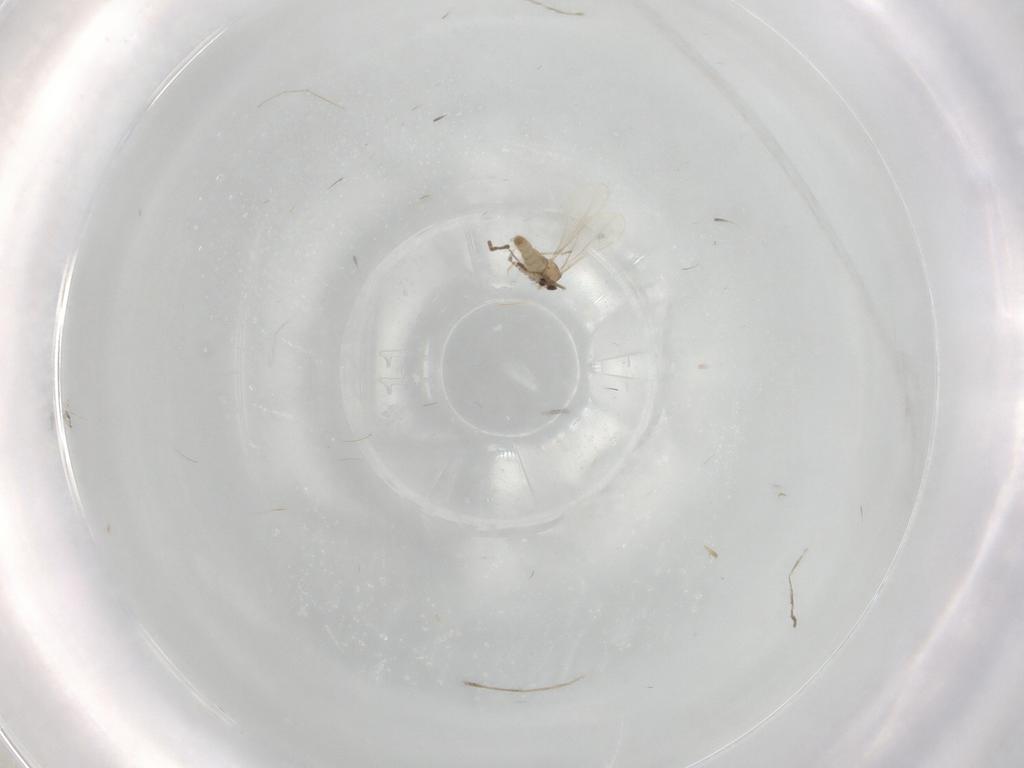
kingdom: Animalia
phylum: Arthropoda
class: Insecta
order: Diptera
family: Cecidomyiidae
